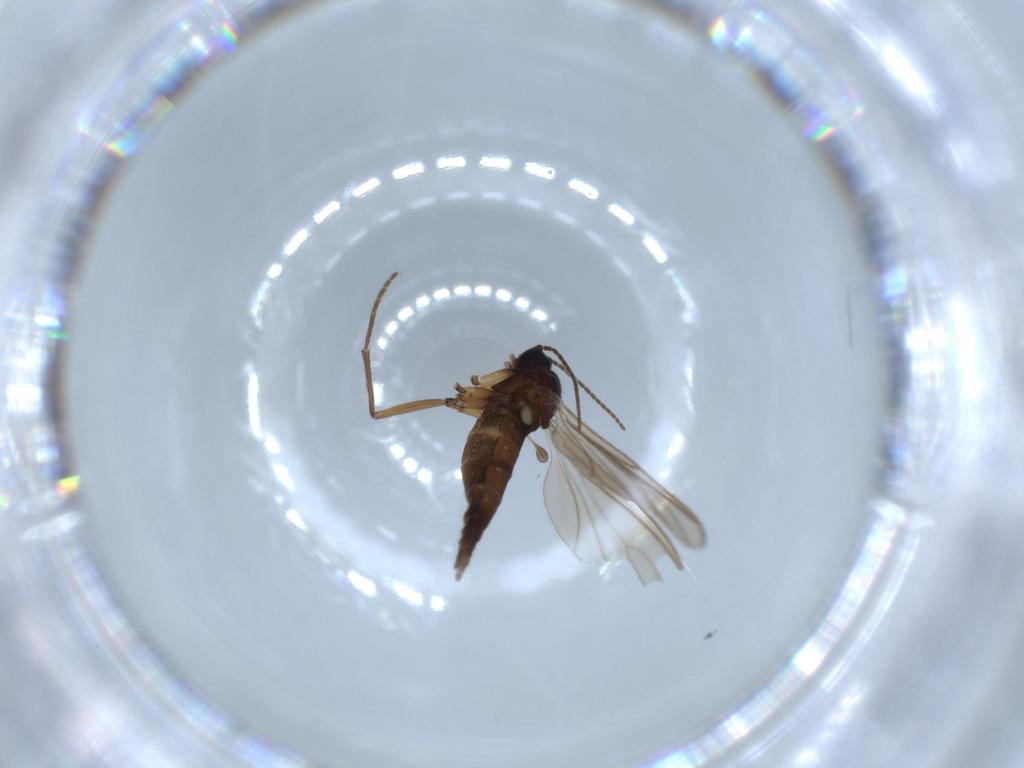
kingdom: Animalia
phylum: Arthropoda
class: Insecta
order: Diptera
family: Sciaridae
